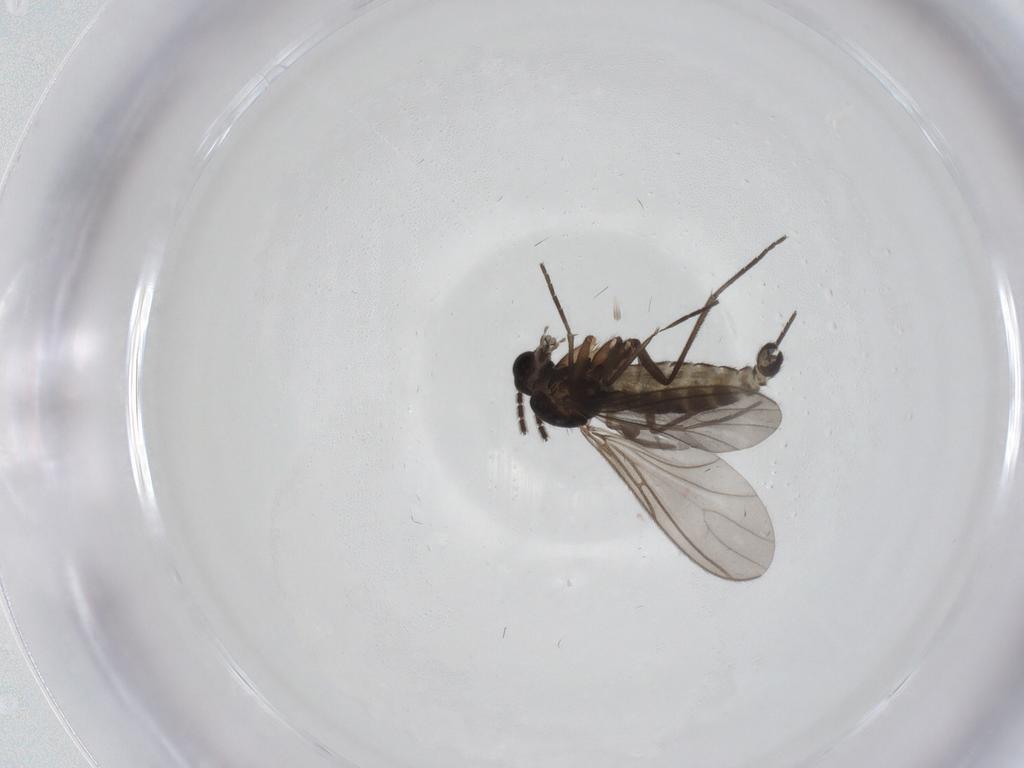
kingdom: Animalia
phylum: Arthropoda
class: Insecta
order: Diptera
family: Sciaridae
